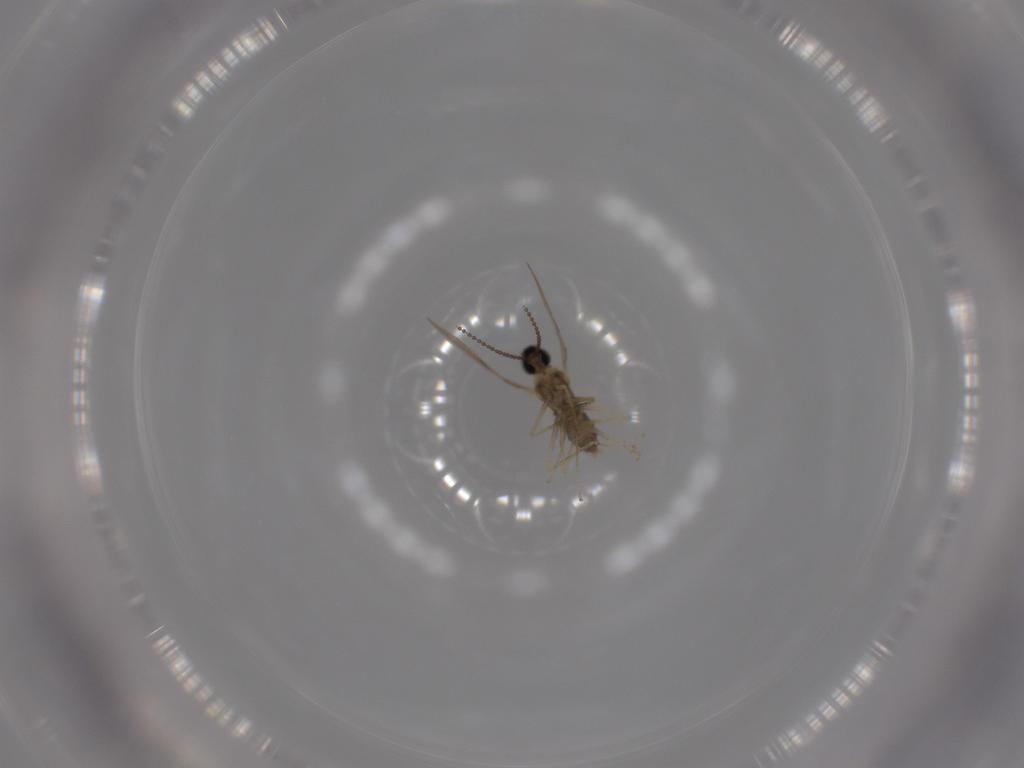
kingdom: Animalia
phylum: Arthropoda
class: Insecta
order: Diptera
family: Cecidomyiidae
